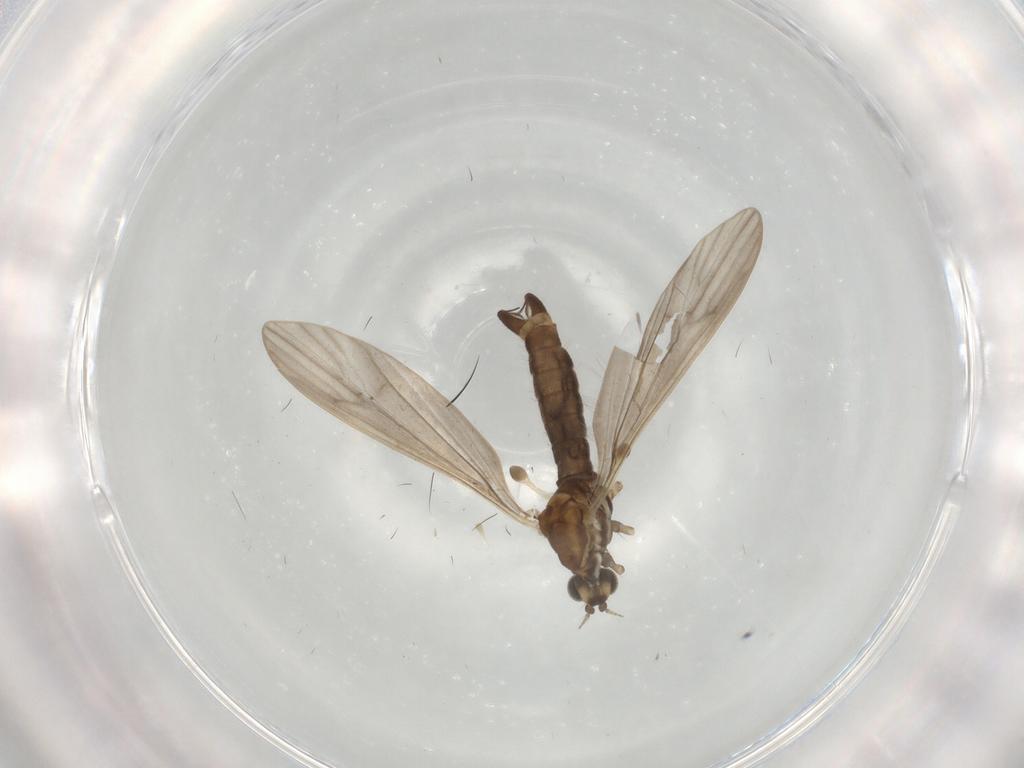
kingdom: Animalia
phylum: Arthropoda
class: Insecta
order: Diptera
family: Limoniidae
